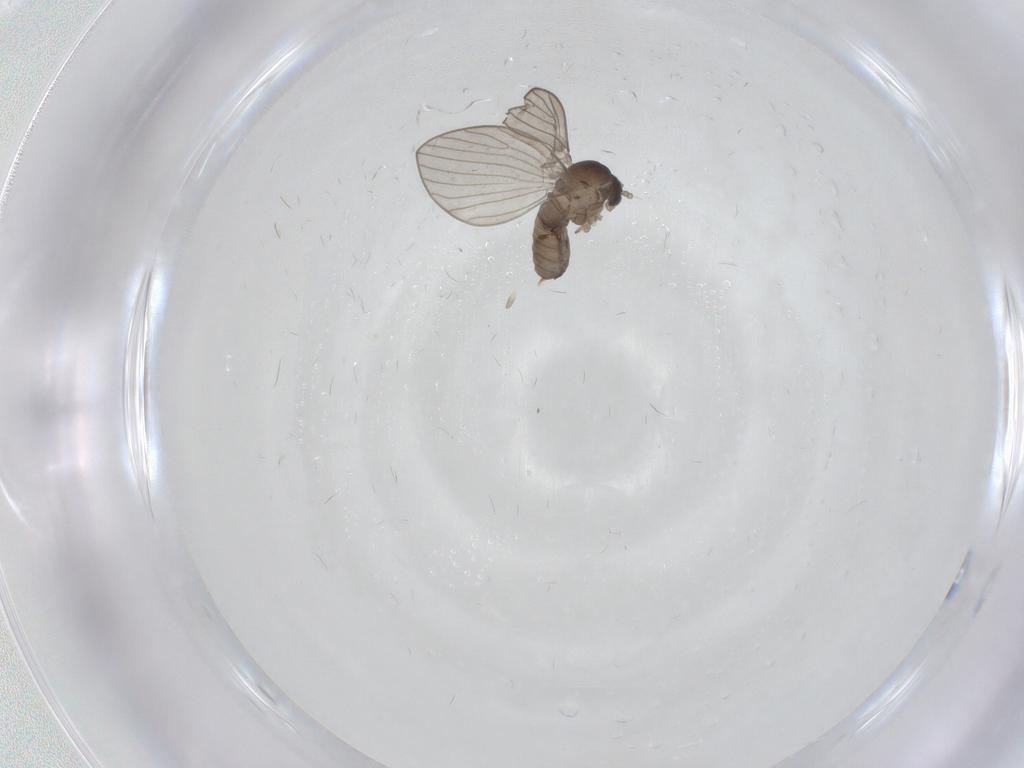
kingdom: Animalia
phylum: Arthropoda
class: Insecta
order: Diptera
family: Psychodidae
